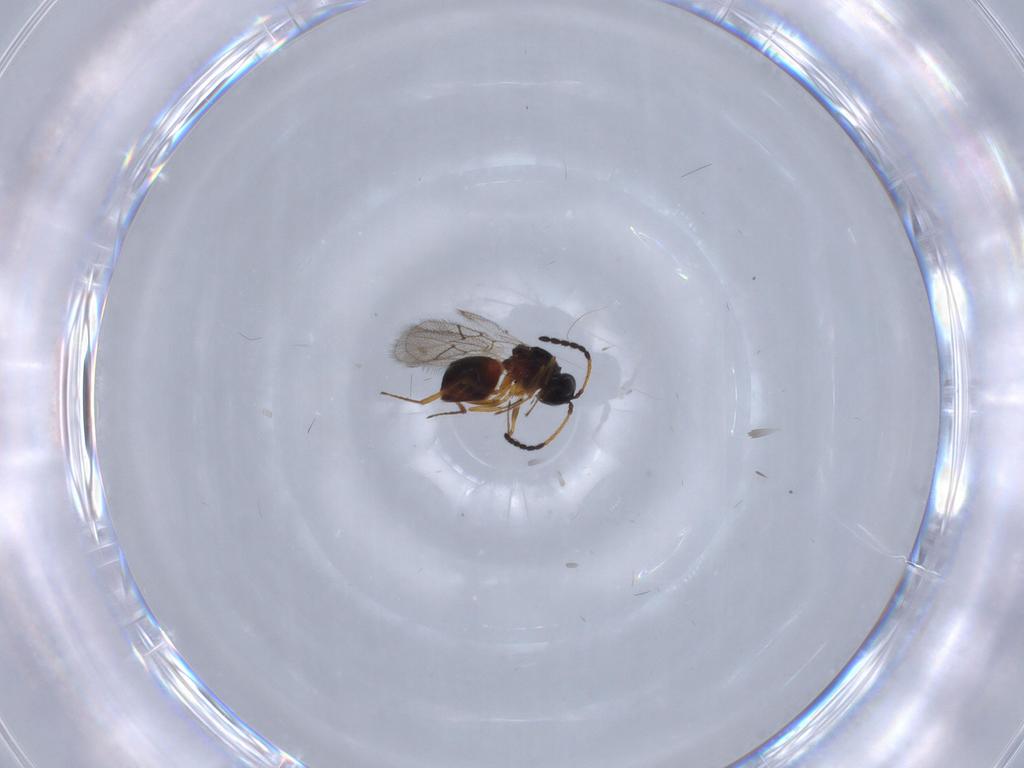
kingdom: Animalia
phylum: Arthropoda
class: Insecta
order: Hymenoptera
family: Figitidae
